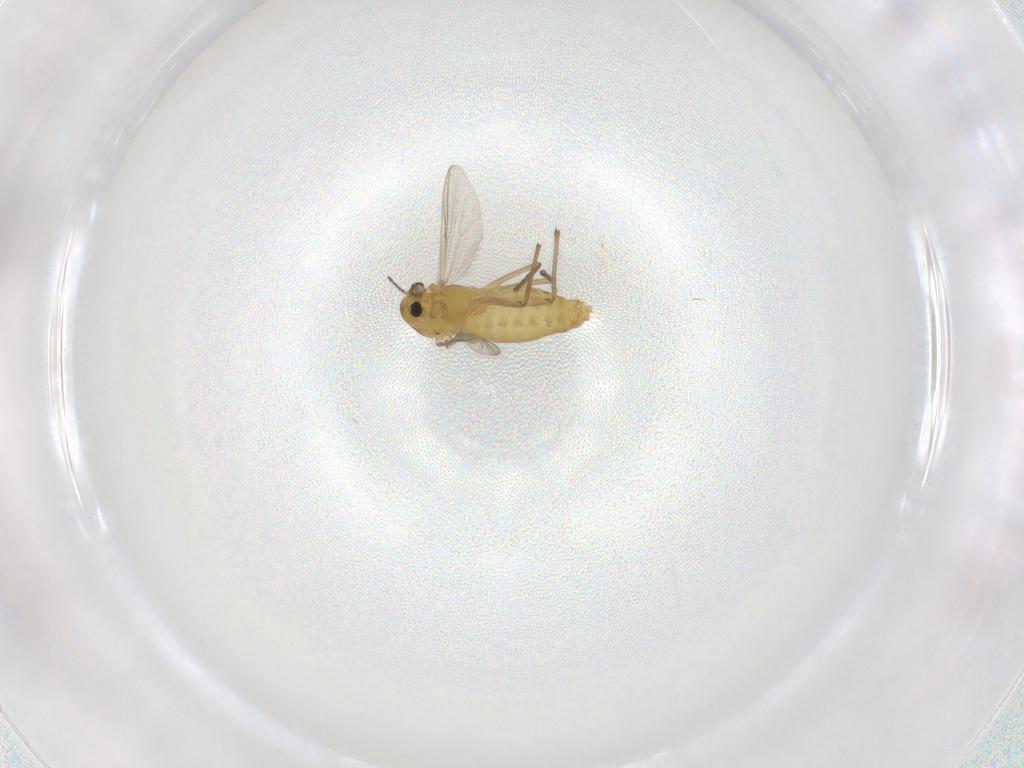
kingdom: Animalia
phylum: Arthropoda
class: Insecta
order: Diptera
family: Chironomidae
